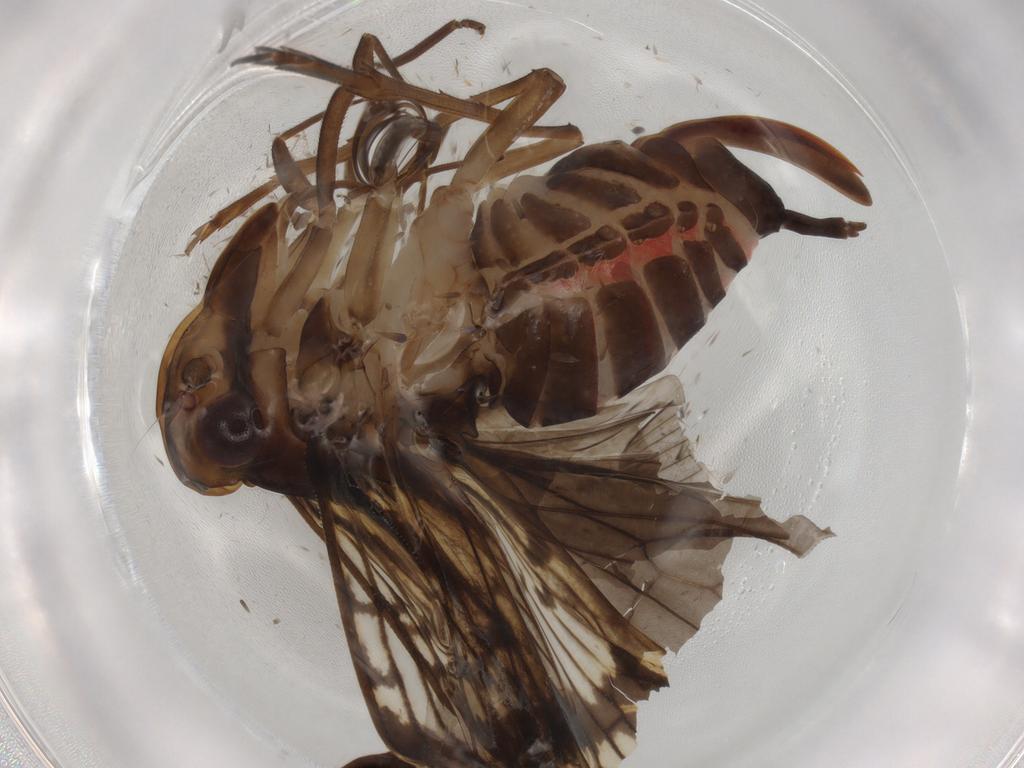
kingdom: Animalia
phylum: Arthropoda
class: Insecta
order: Hemiptera
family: Cixiidae
